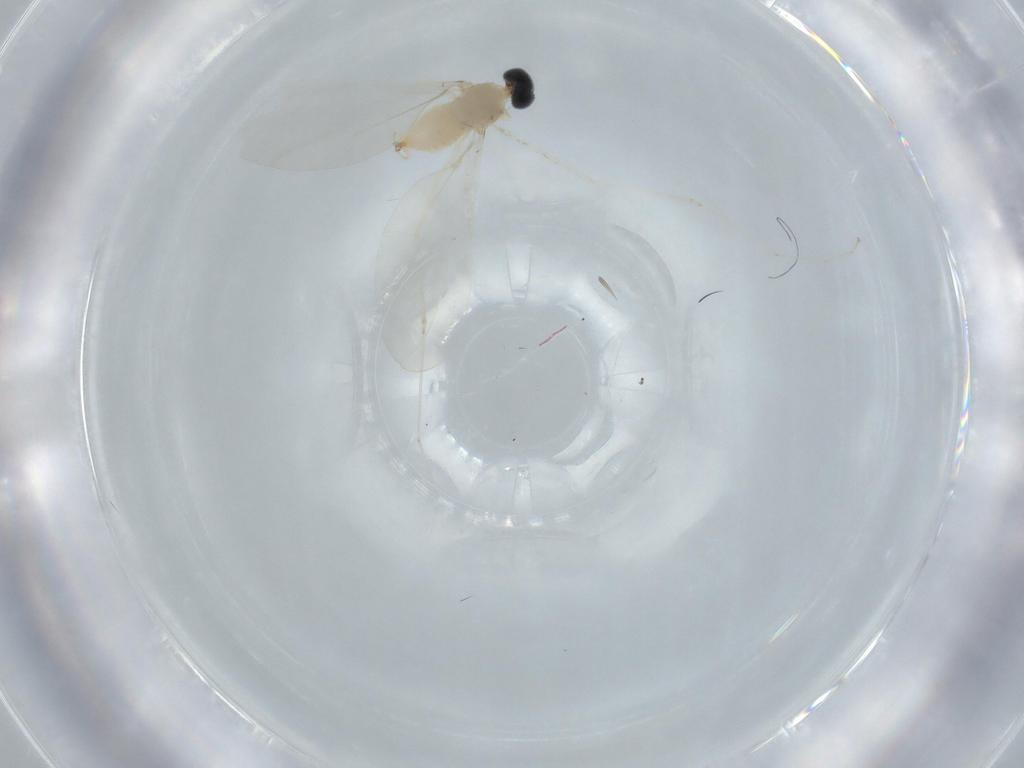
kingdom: Animalia
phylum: Arthropoda
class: Insecta
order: Diptera
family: Cecidomyiidae
